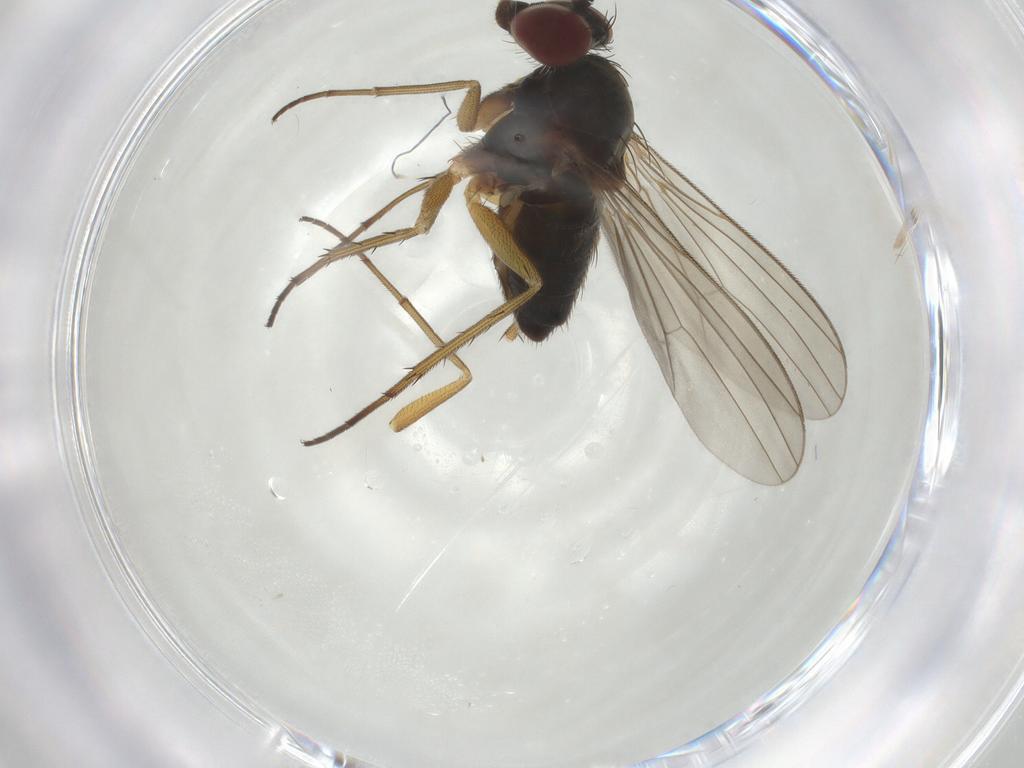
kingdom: Animalia
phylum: Arthropoda
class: Insecta
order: Diptera
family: Dolichopodidae
